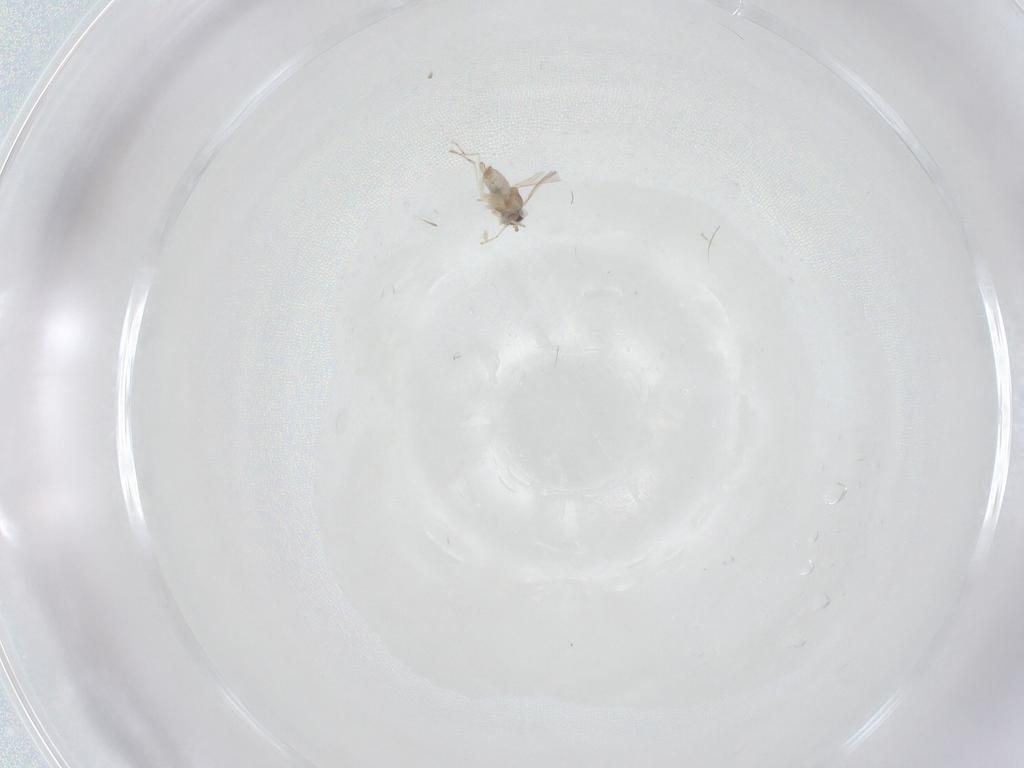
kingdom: Animalia
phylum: Arthropoda
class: Insecta
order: Diptera
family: Cecidomyiidae
